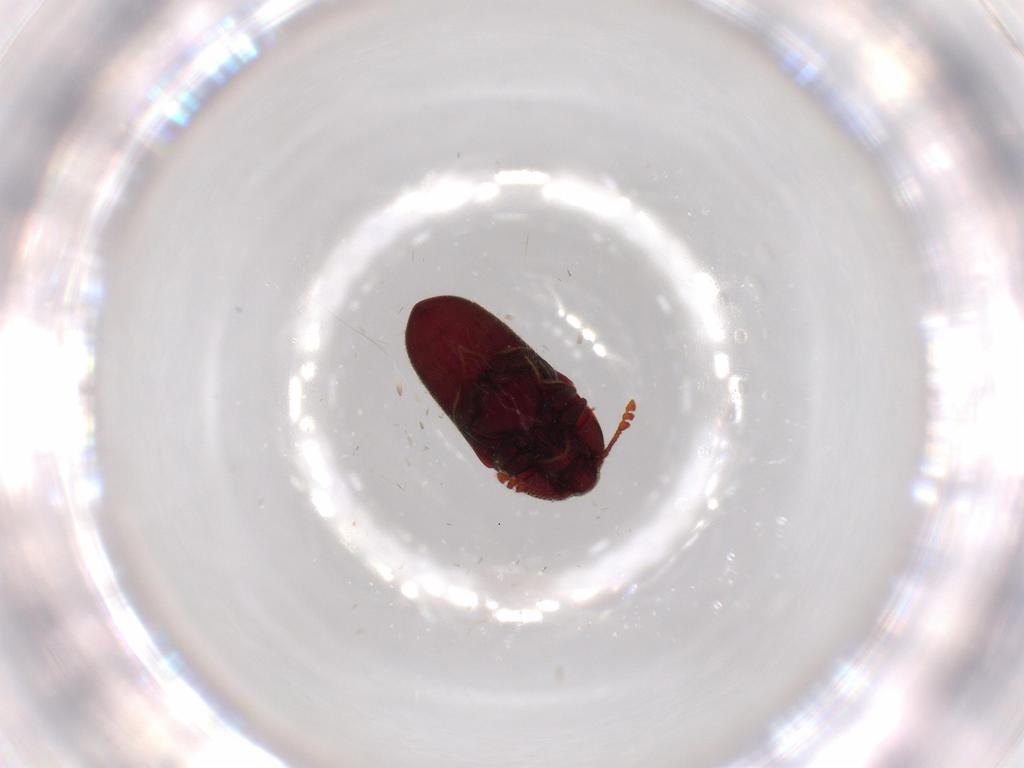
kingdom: Animalia
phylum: Arthropoda
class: Insecta
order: Coleoptera
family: Throscidae
